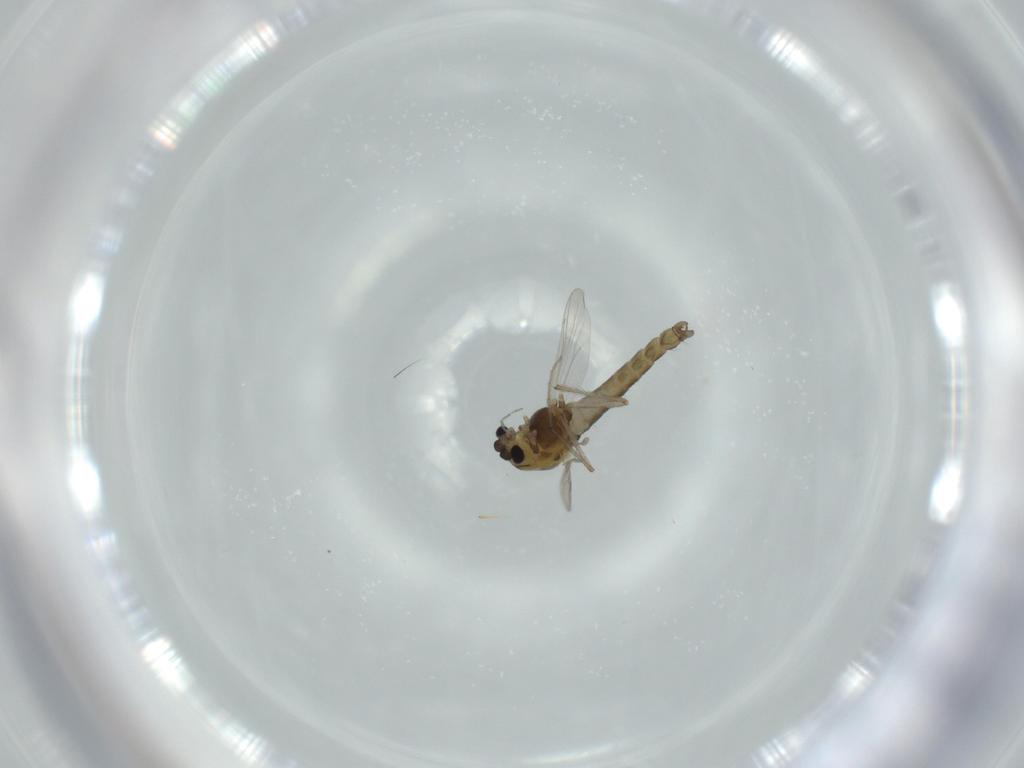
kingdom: Animalia
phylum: Arthropoda
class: Insecta
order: Diptera
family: Chironomidae
